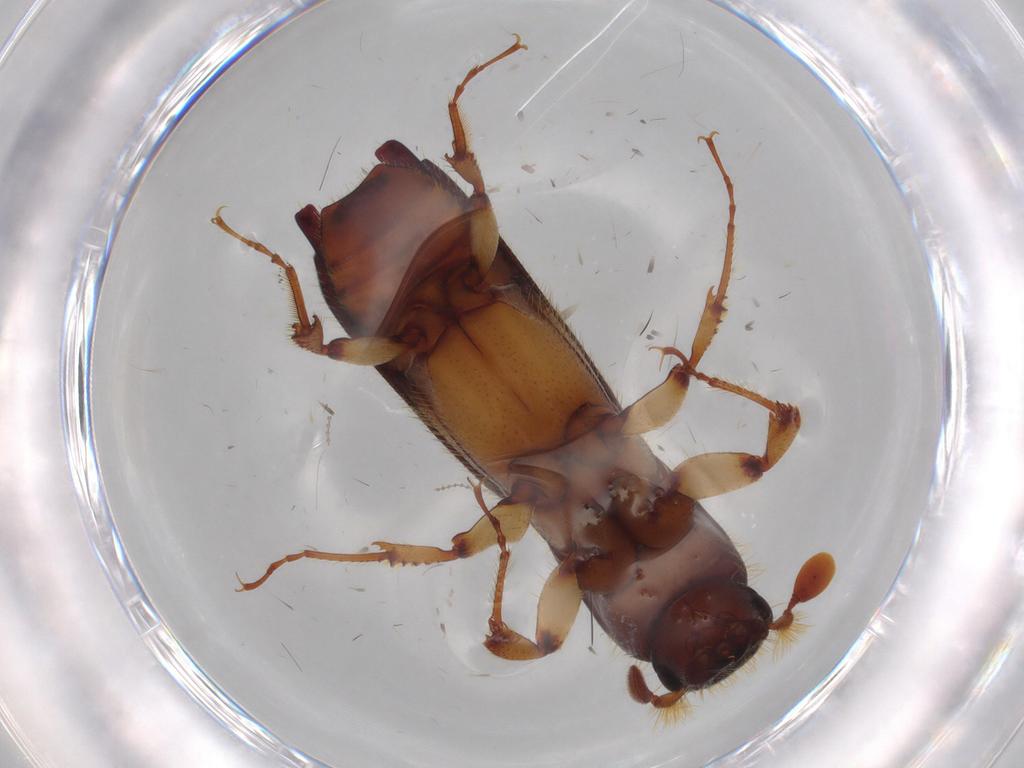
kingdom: Animalia
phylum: Arthropoda
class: Insecta
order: Coleoptera
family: Curculionidae
